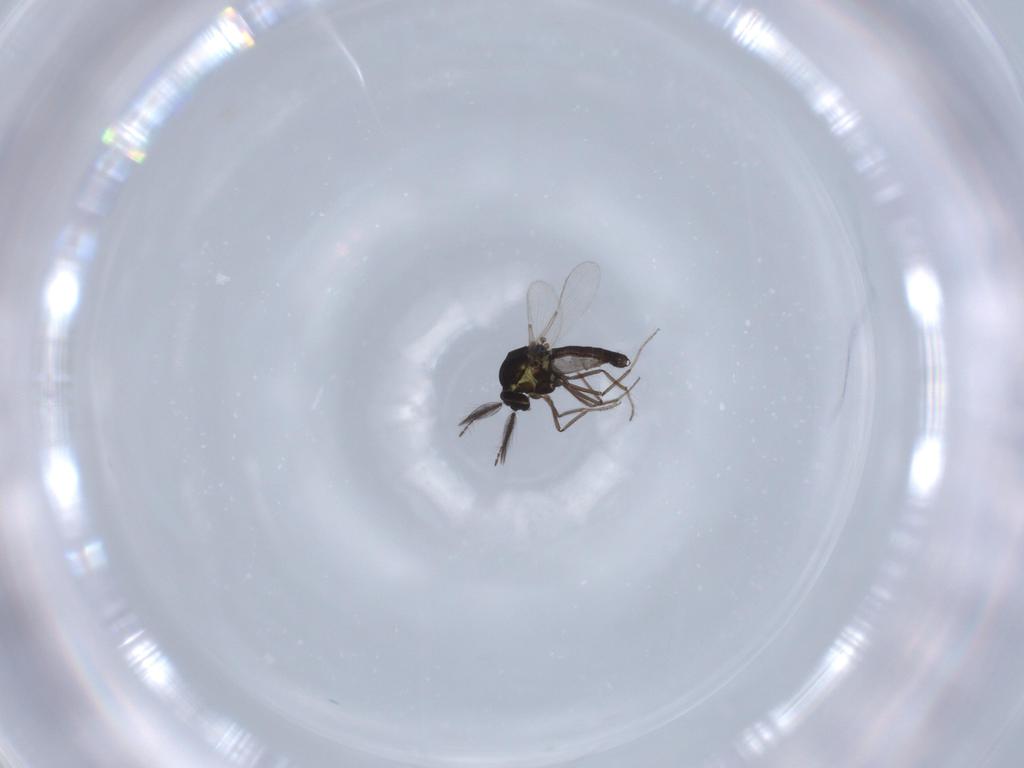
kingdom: Animalia
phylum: Arthropoda
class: Insecta
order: Diptera
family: Ceratopogonidae
